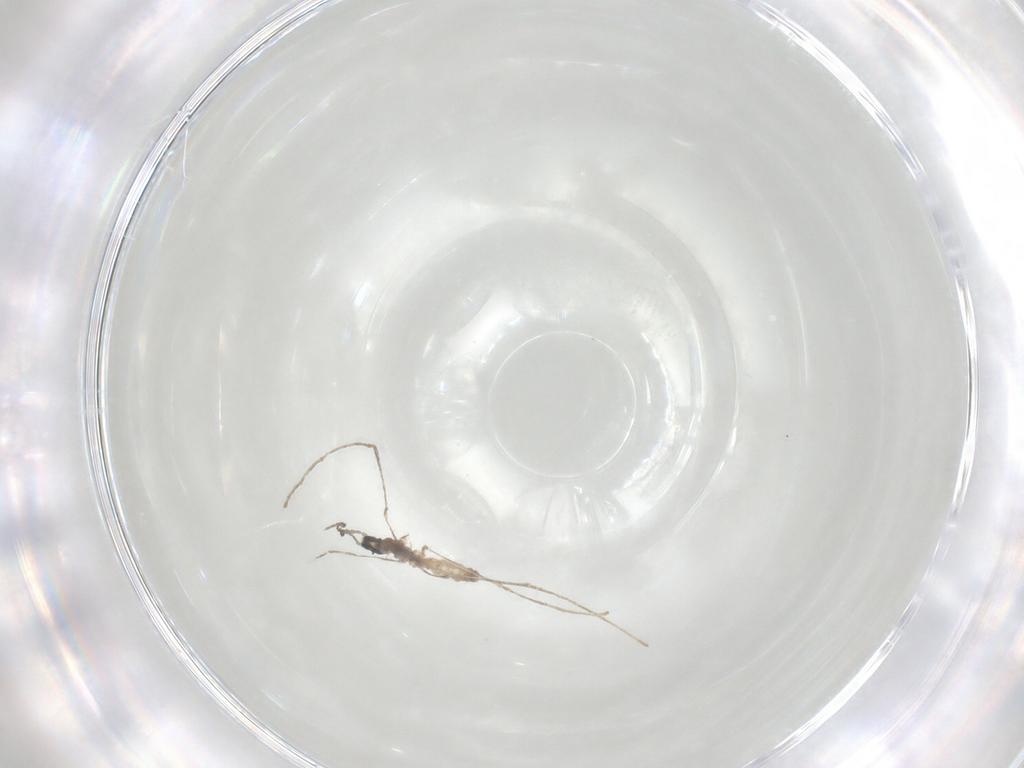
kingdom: Animalia
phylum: Arthropoda
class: Insecta
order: Diptera
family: Cecidomyiidae
